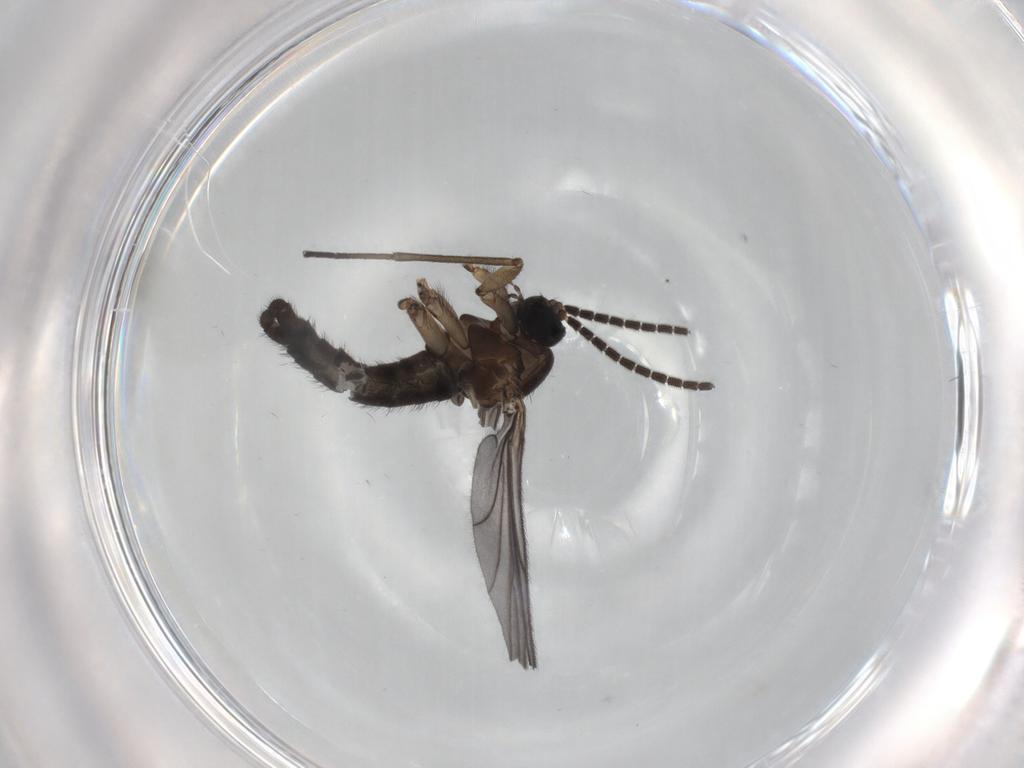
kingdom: Animalia
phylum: Arthropoda
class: Insecta
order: Diptera
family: Sciaridae
